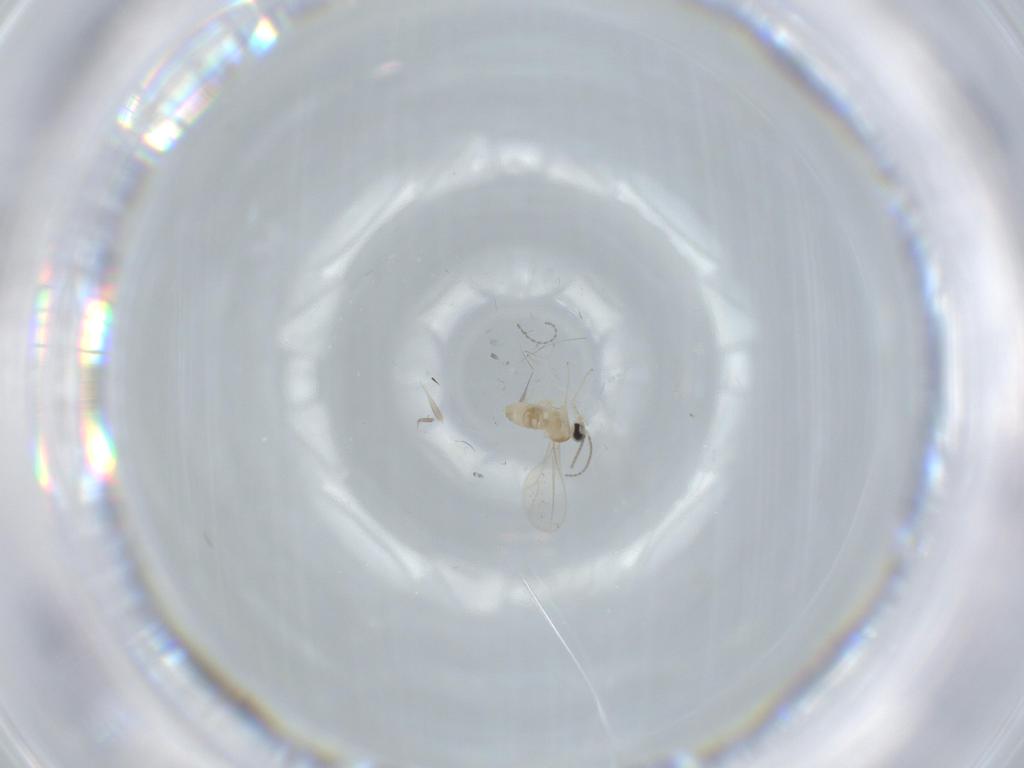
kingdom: Animalia
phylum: Arthropoda
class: Insecta
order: Diptera
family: Cecidomyiidae
